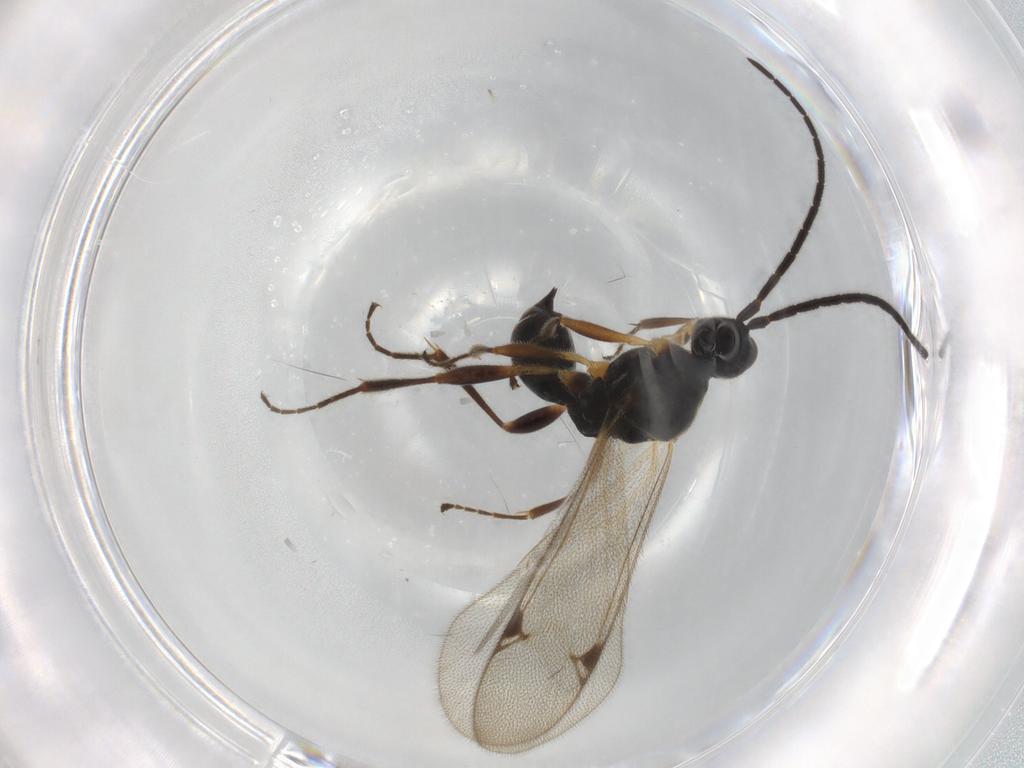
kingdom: Animalia
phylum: Arthropoda
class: Insecta
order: Hymenoptera
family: Proctotrupidae
